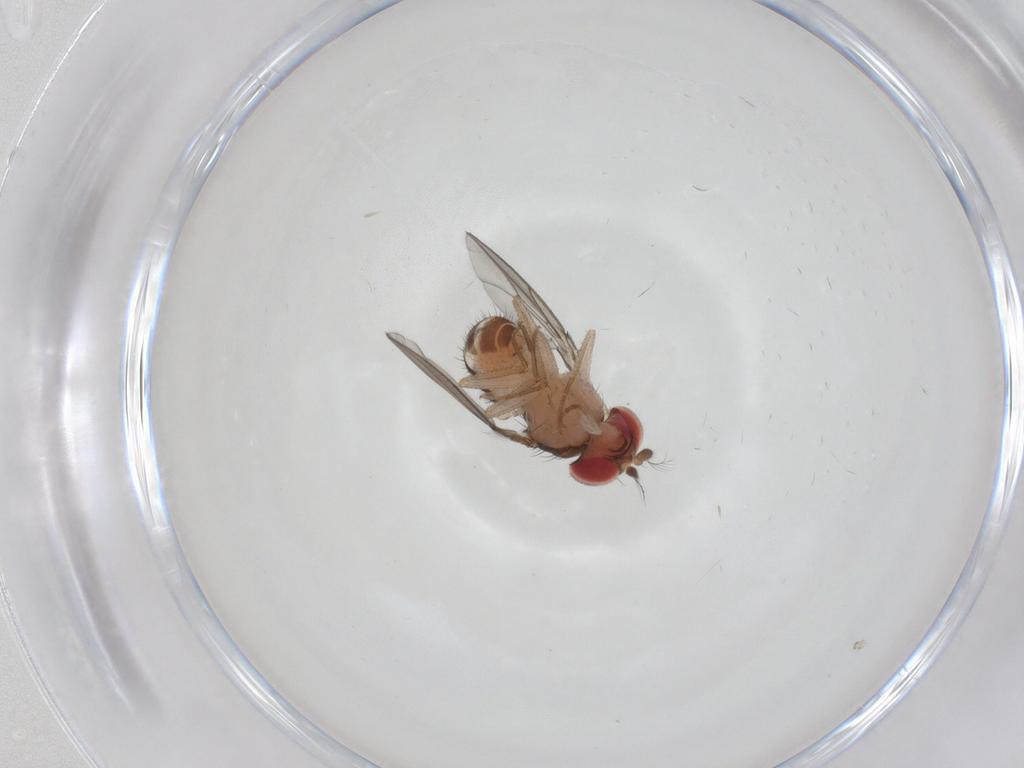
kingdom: Animalia
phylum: Arthropoda
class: Insecta
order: Diptera
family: Drosophilidae
